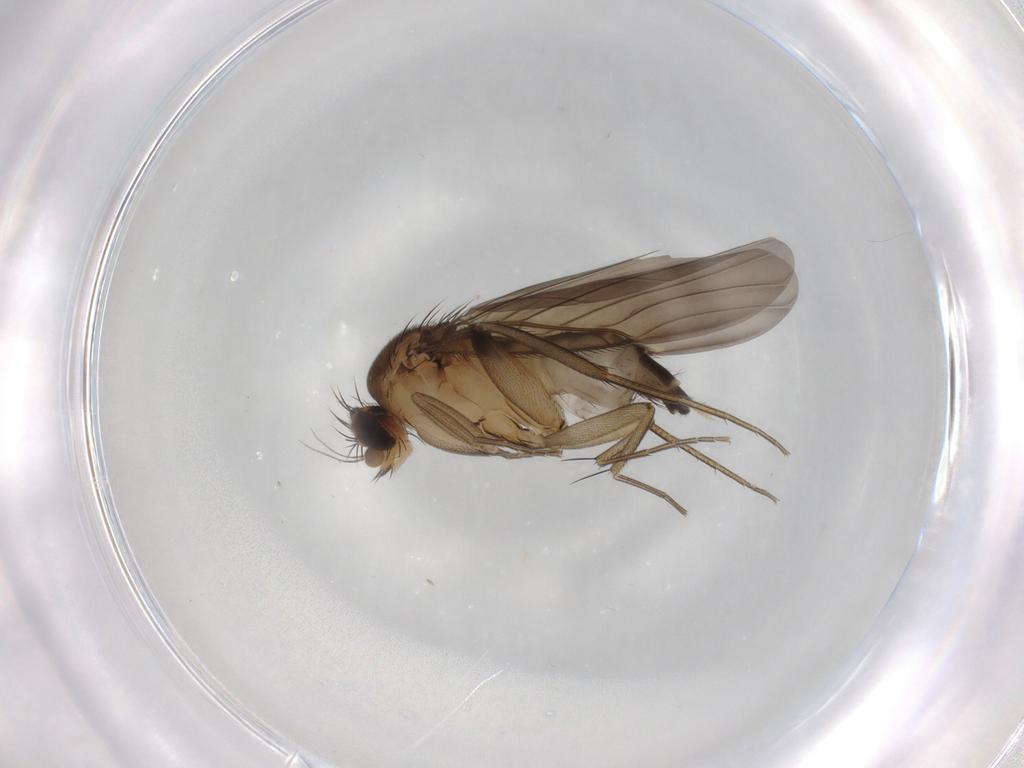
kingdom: Animalia
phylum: Arthropoda
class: Insecta
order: Diptera
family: Phoridae
